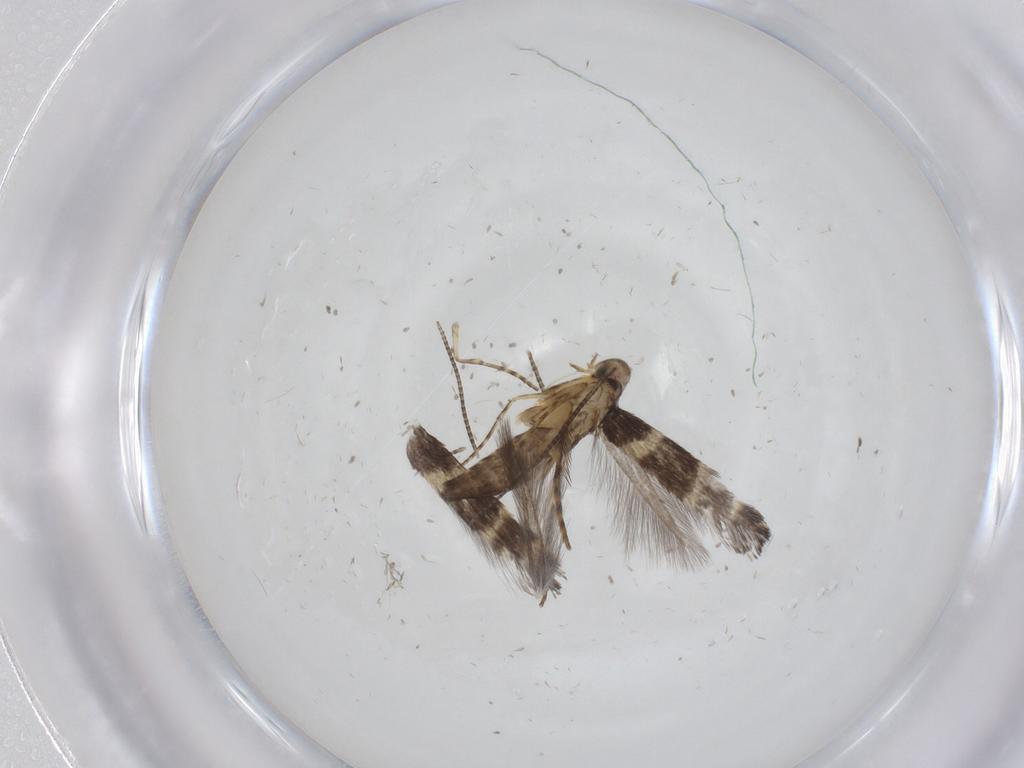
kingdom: Animalia
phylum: Arthropoda
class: Insecta
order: Lepidoptera
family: Gracillariidae
